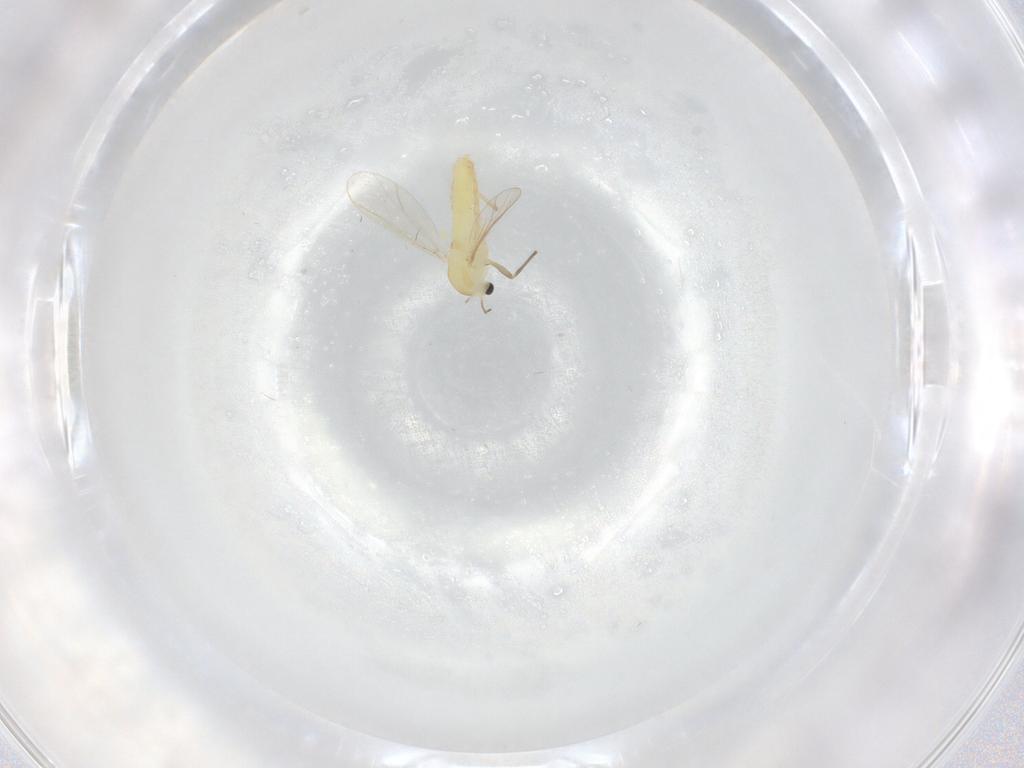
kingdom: Animalia
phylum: Arthropoda
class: Insecta
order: Diptera
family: Chironomidae
